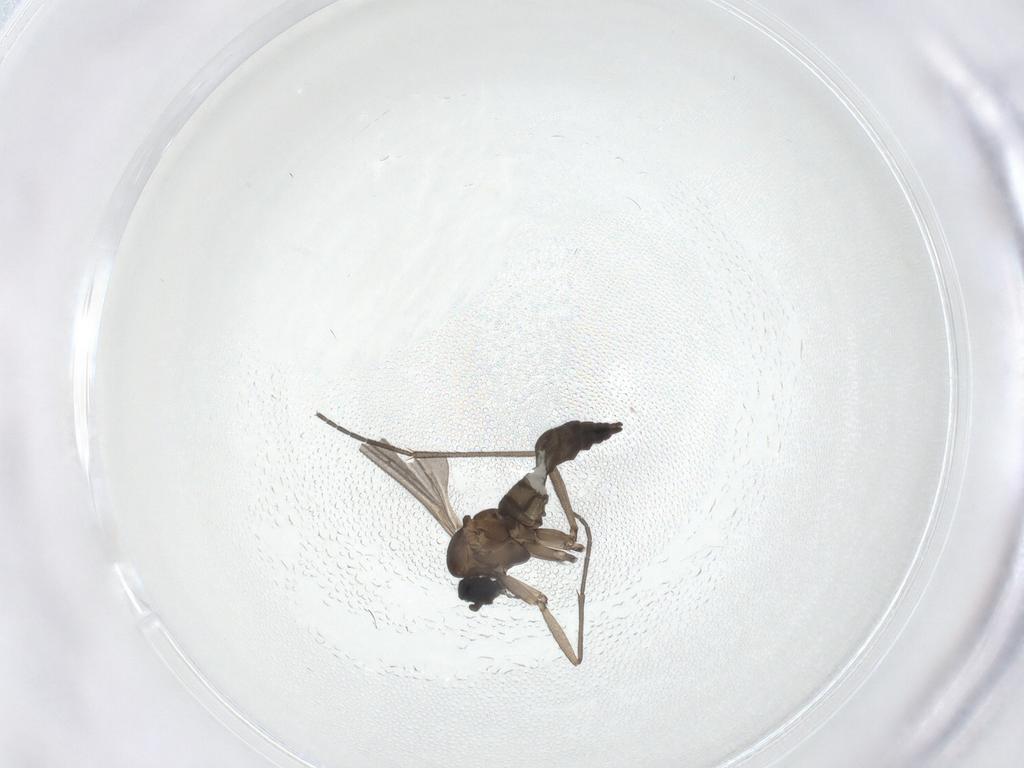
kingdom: Animalia
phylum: Arthropoda
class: Insecta
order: Diptera
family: Sciaridae
